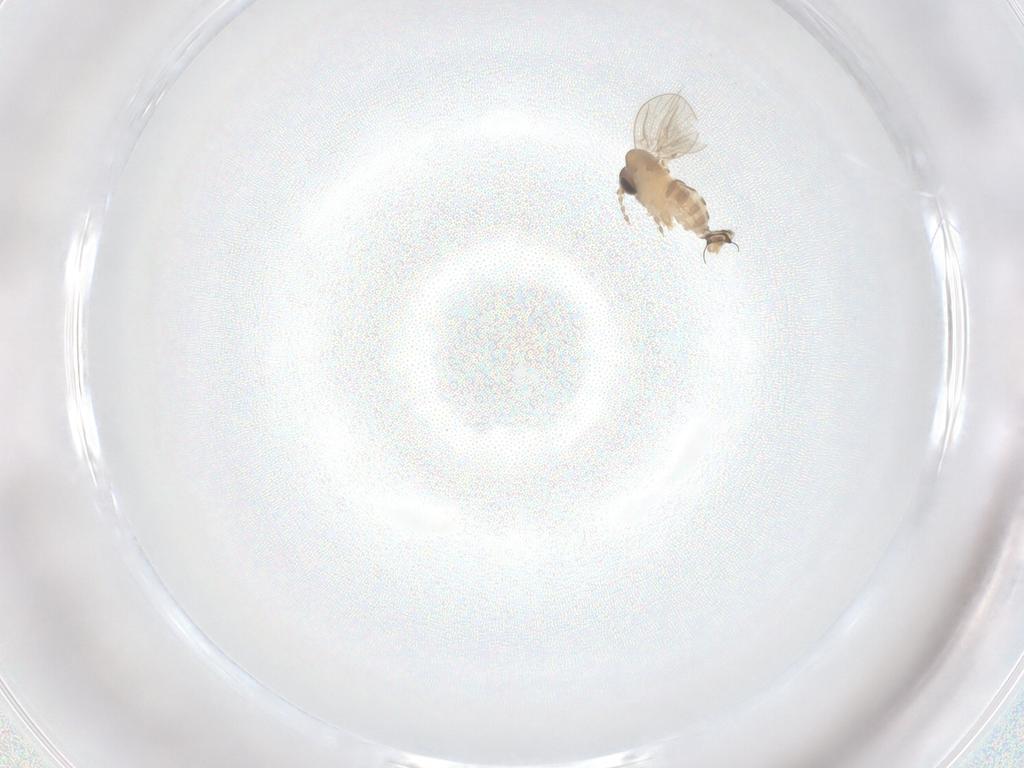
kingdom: Animalia
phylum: Arthropoda
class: Insecta
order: Diptera
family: Psychodidae
